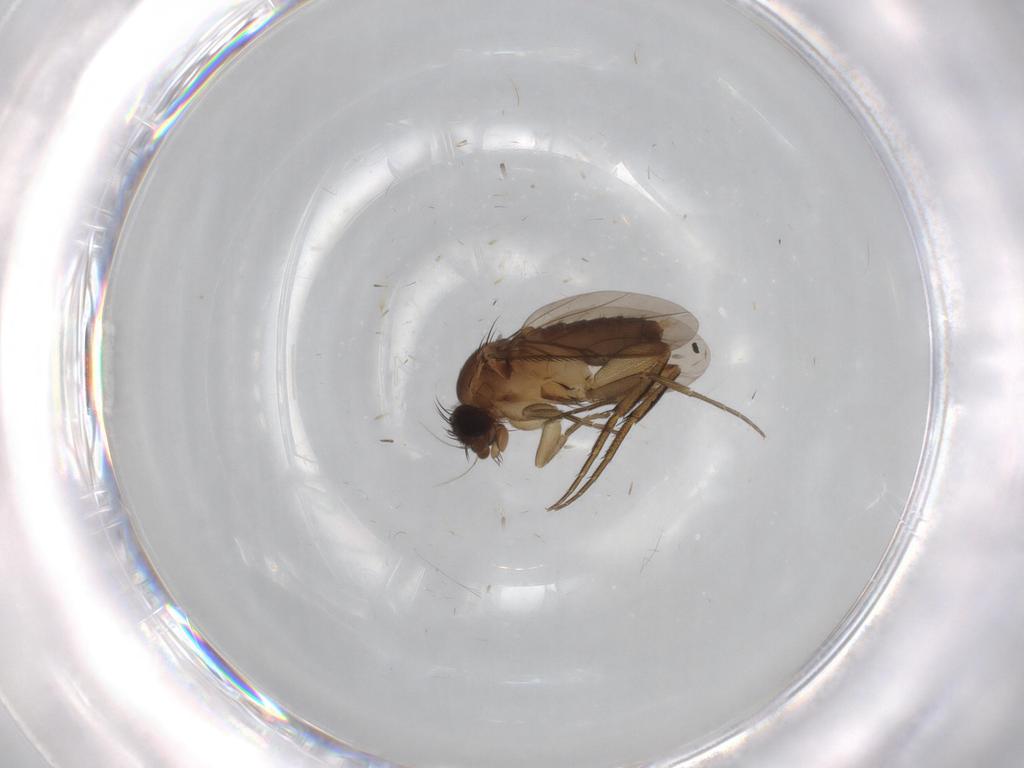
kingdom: Animalia
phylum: Arthropoda
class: Insecta
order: Diptera
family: Phoridae
